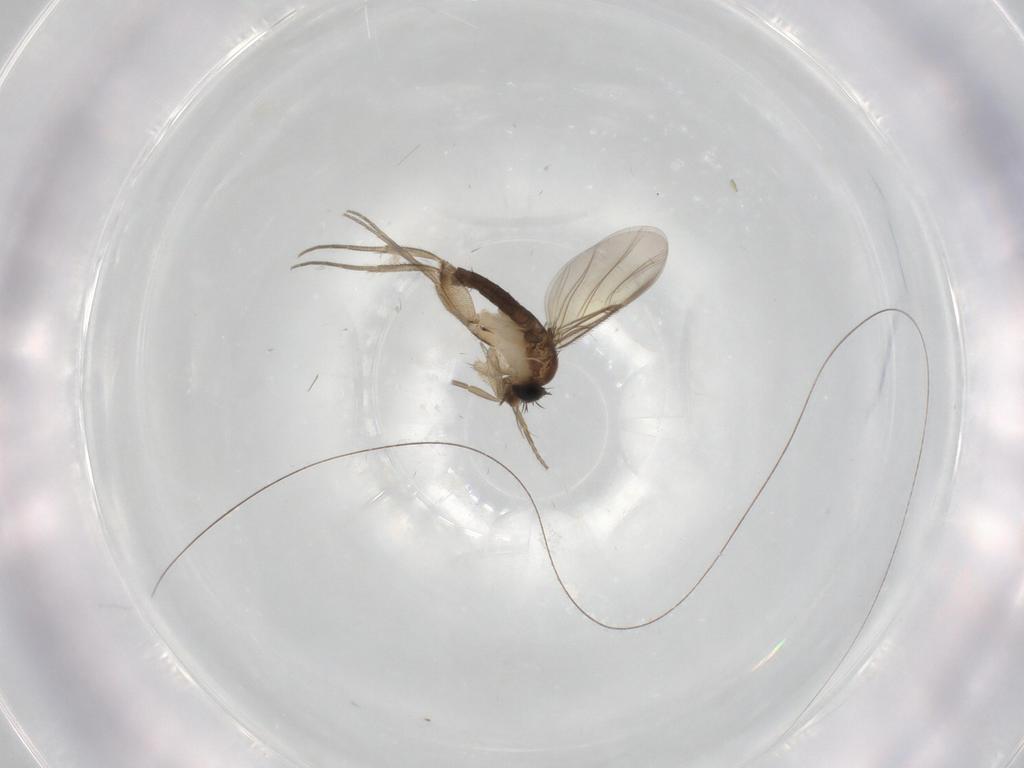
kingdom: Animalia
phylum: Arthropoda
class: Insecta
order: Diptera
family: Phoridae
